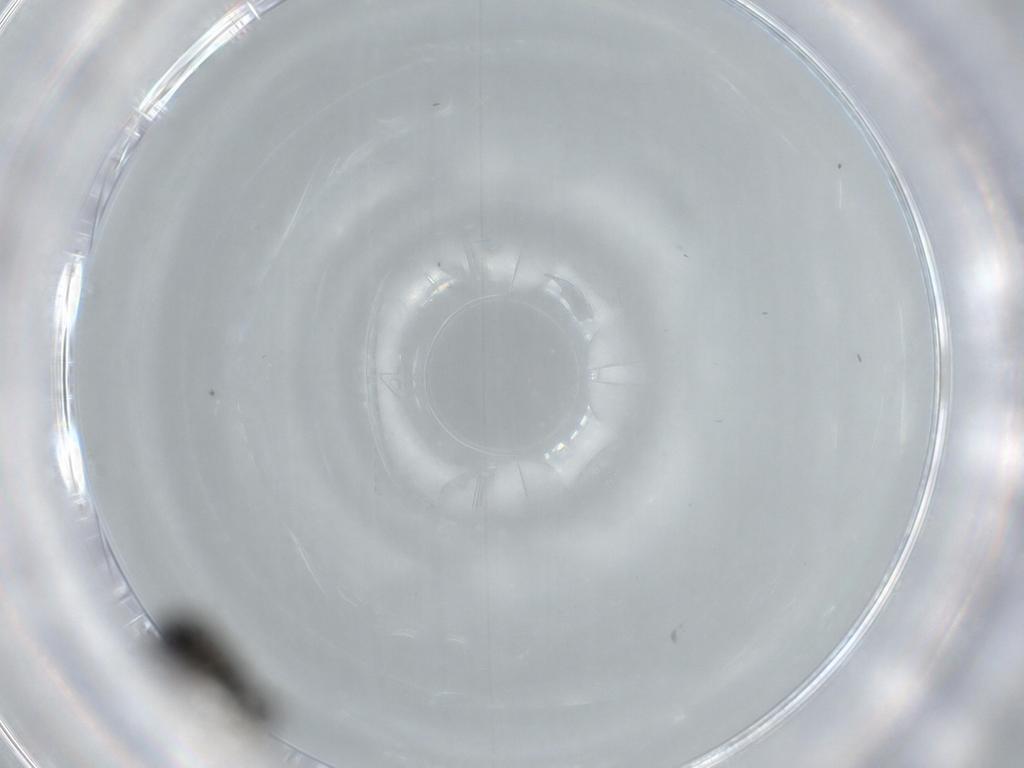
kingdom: Animalia
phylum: Arthropoda
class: Insecta
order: Diptera
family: Phoridae
